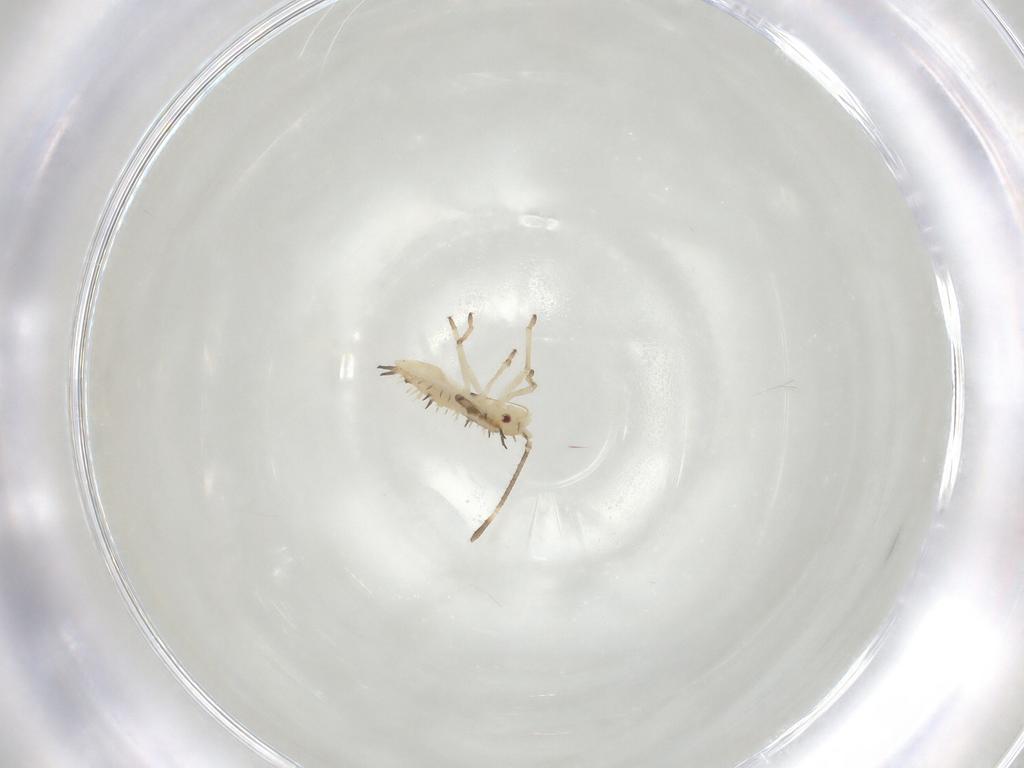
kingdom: Animalia
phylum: Arthropoda
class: Insecta
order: Hemiptera
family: Tingidae
